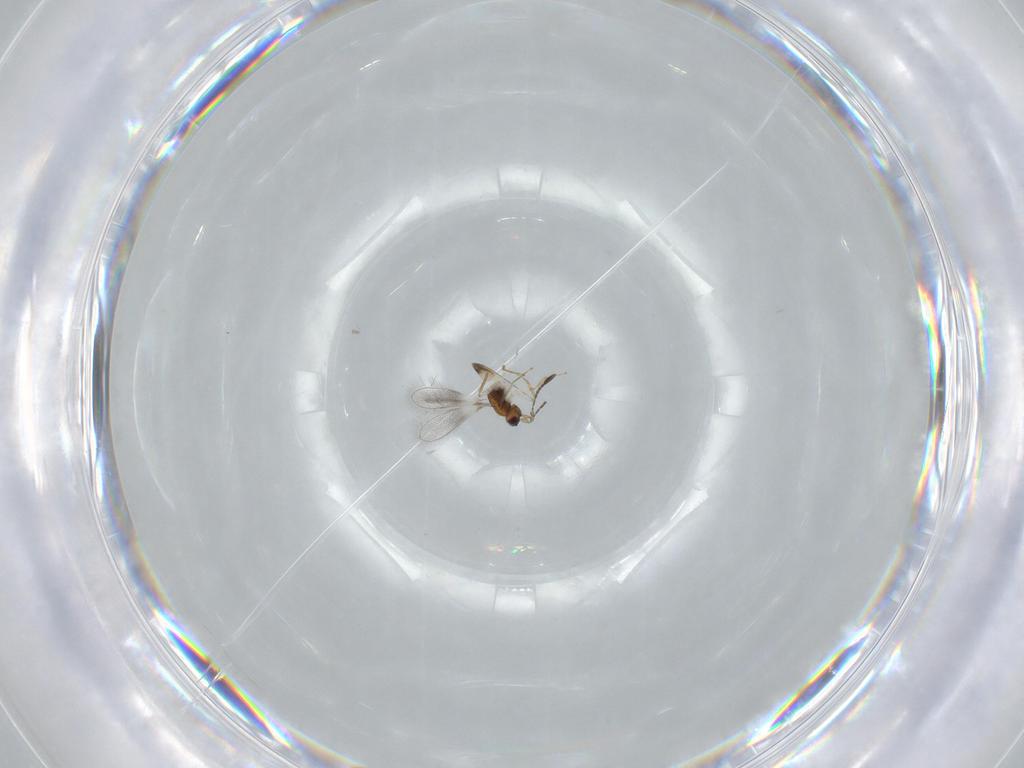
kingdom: Animalia
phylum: Arthropoda
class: Insecta
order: Hymenoptera
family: Mymaridae
